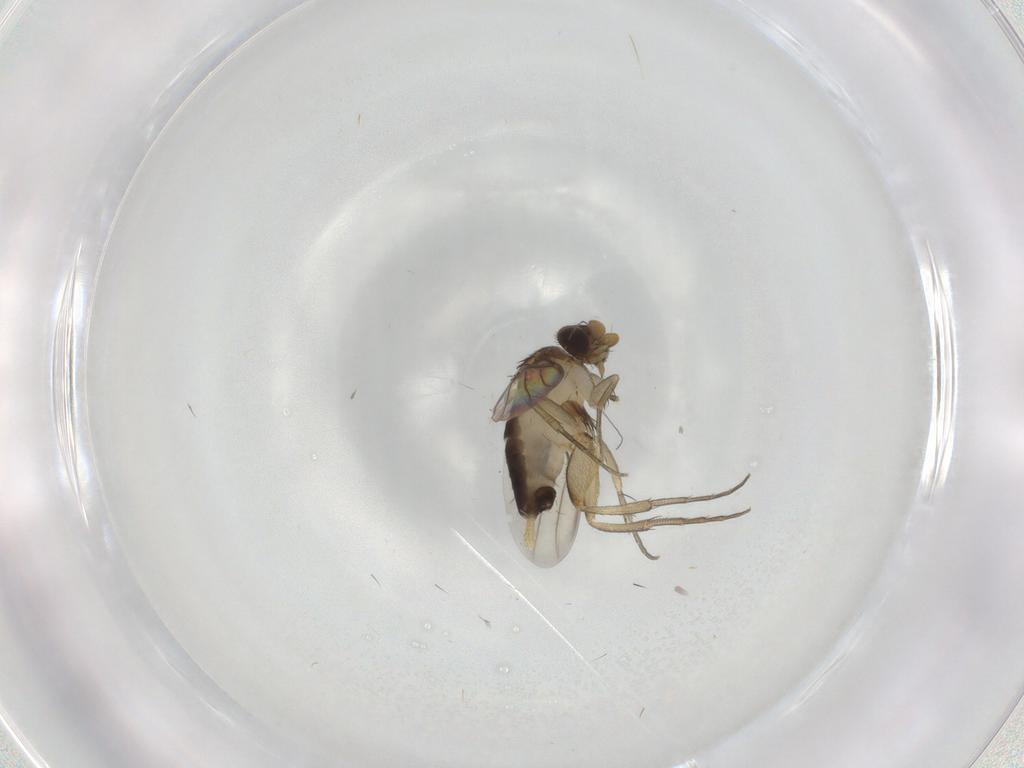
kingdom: Animalia
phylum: Arthropoda
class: Insecta
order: Diptera
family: Phoridae
